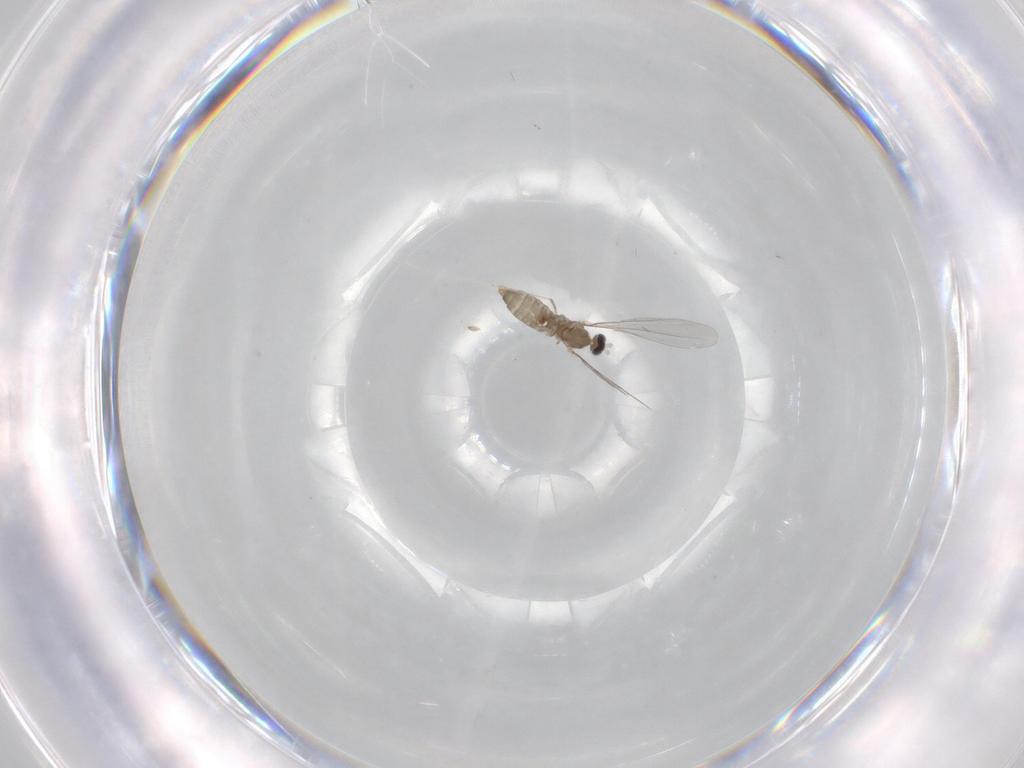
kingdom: Animalia
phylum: Arthropoda
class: Insecta
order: Diptera
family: Cecidomyiidae
